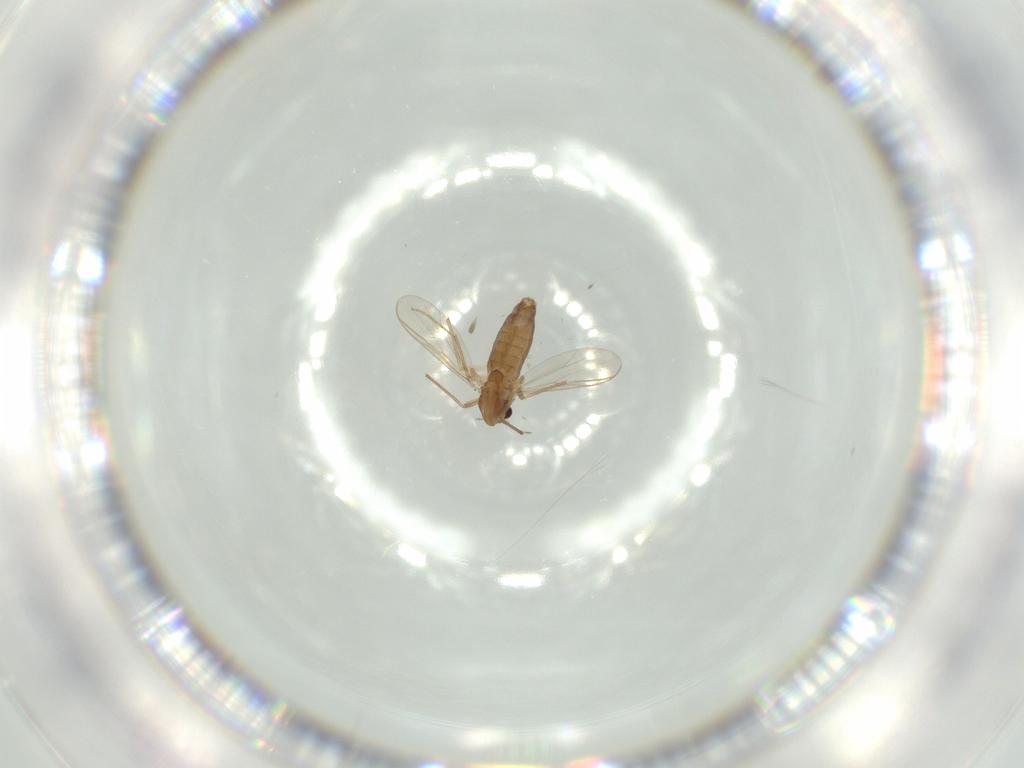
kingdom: Animalia
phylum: Arthropoda
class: Insecta
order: Diptera
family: Chironomidae
